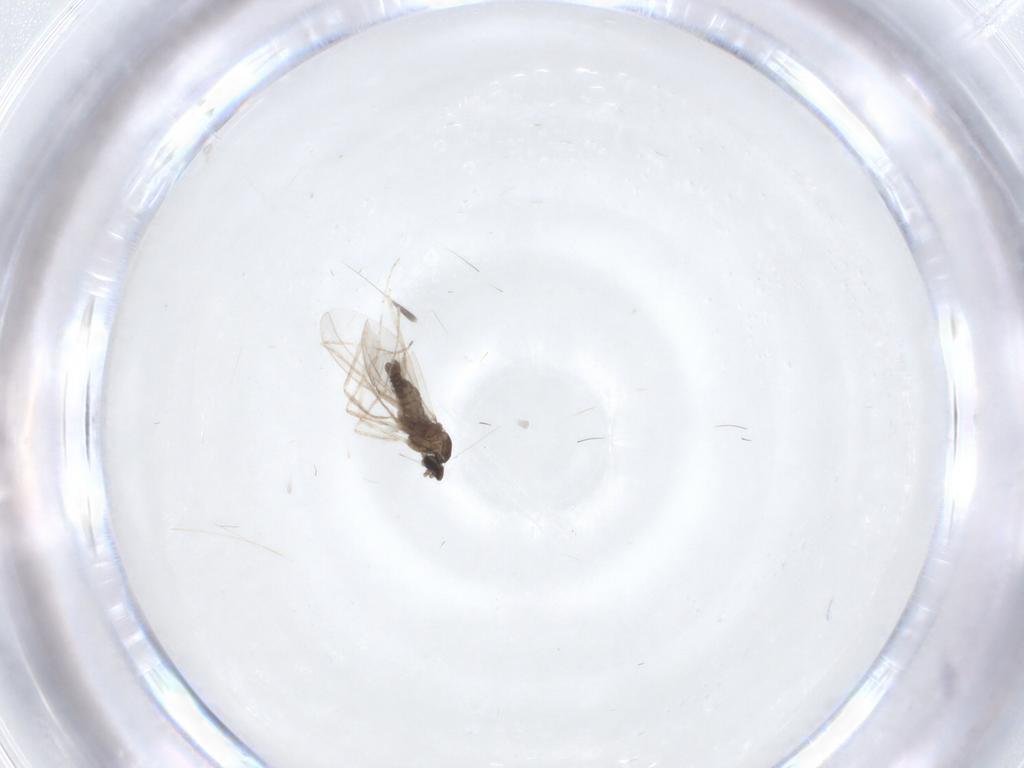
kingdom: Animalia
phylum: Arthropoda
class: Insecta
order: Diptera
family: Cecidomyiidae
